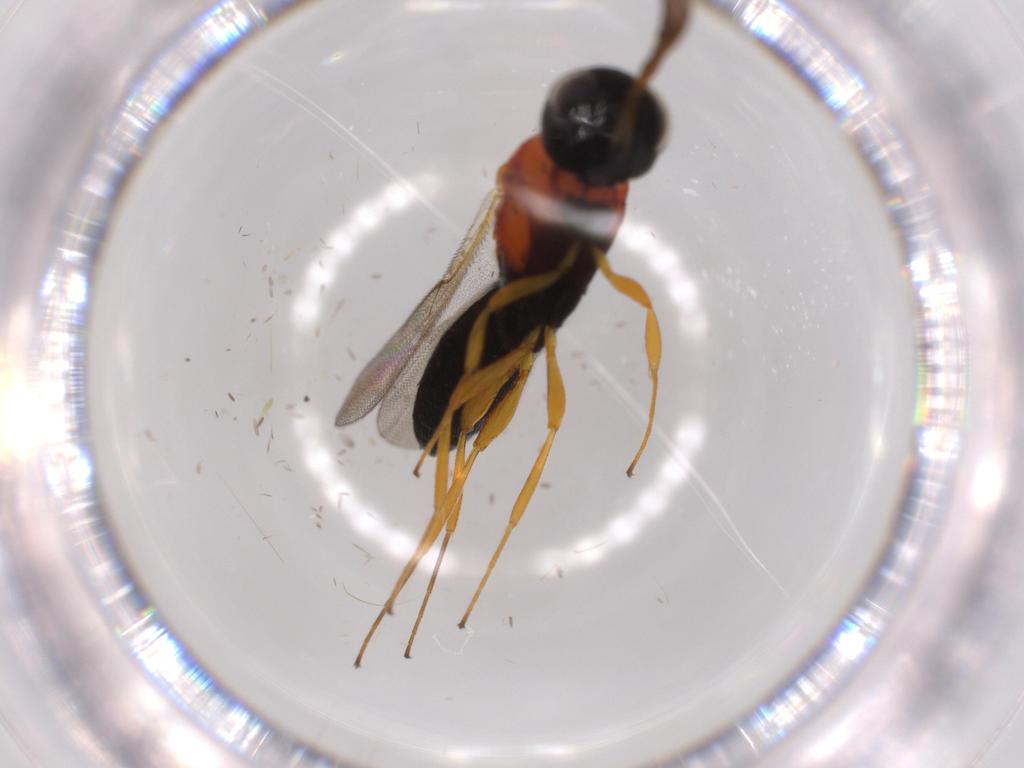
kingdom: Animalia
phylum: Arthropoda
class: Insecta
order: Hymenoptera
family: Scelionidae
